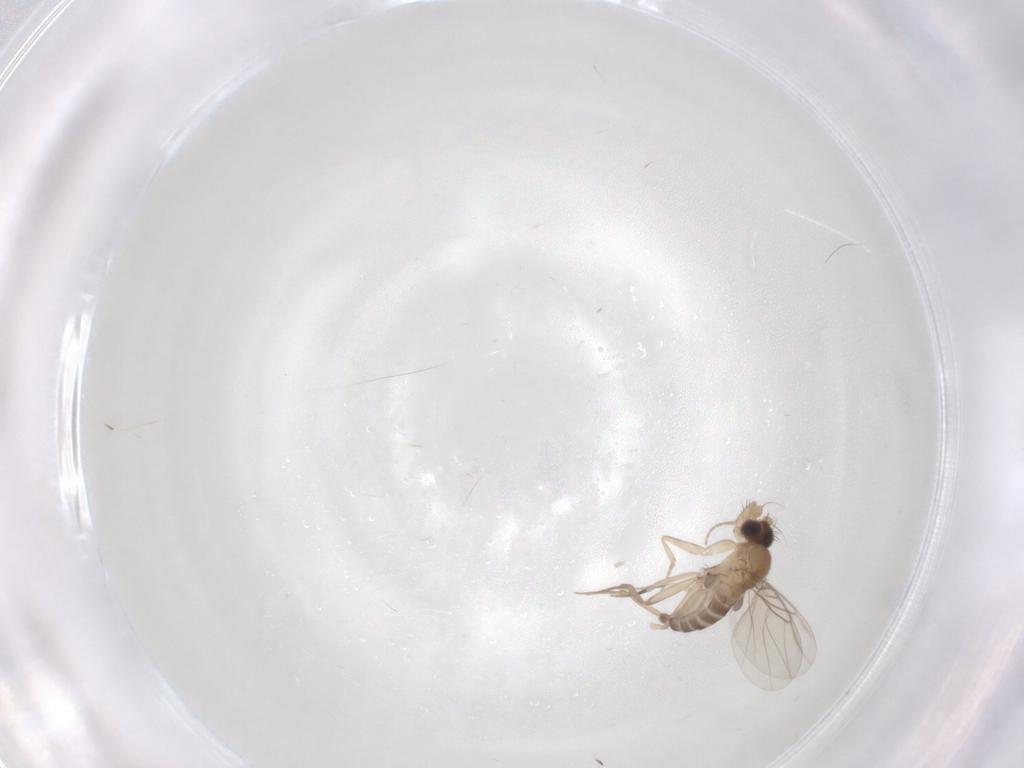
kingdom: Animalia
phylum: Arthropoda
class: Insecta
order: Diptera
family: Phoridae
